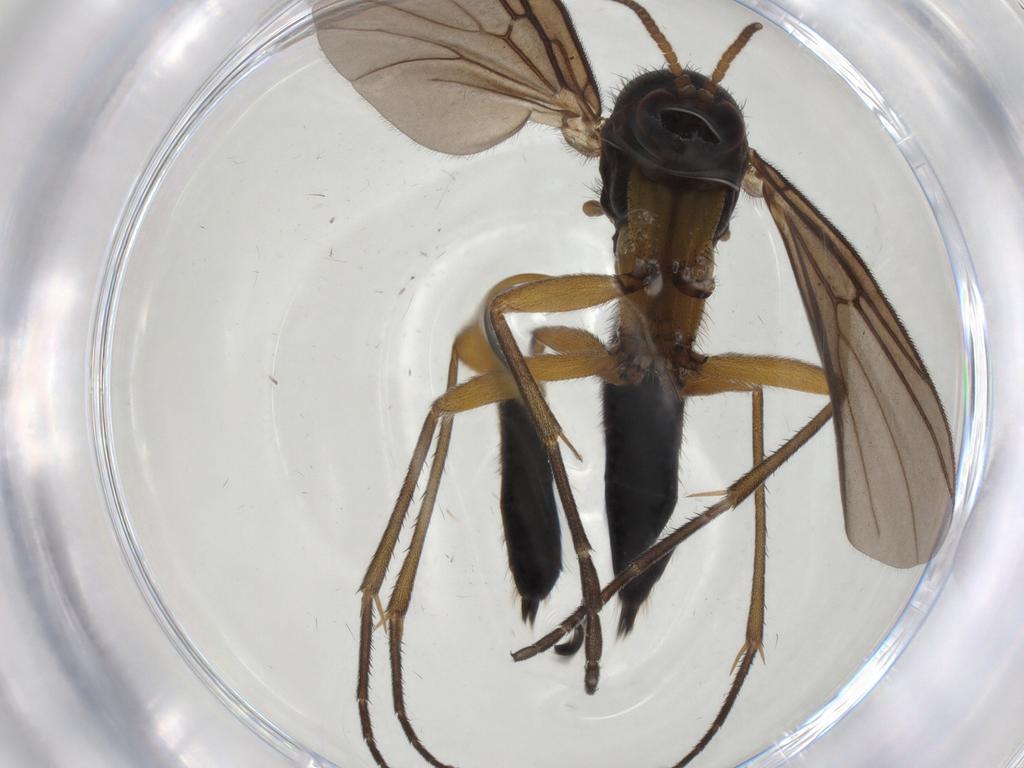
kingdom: Animalia
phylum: Arthropoda
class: Insecta
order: Diptera
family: Mycetophilidae
